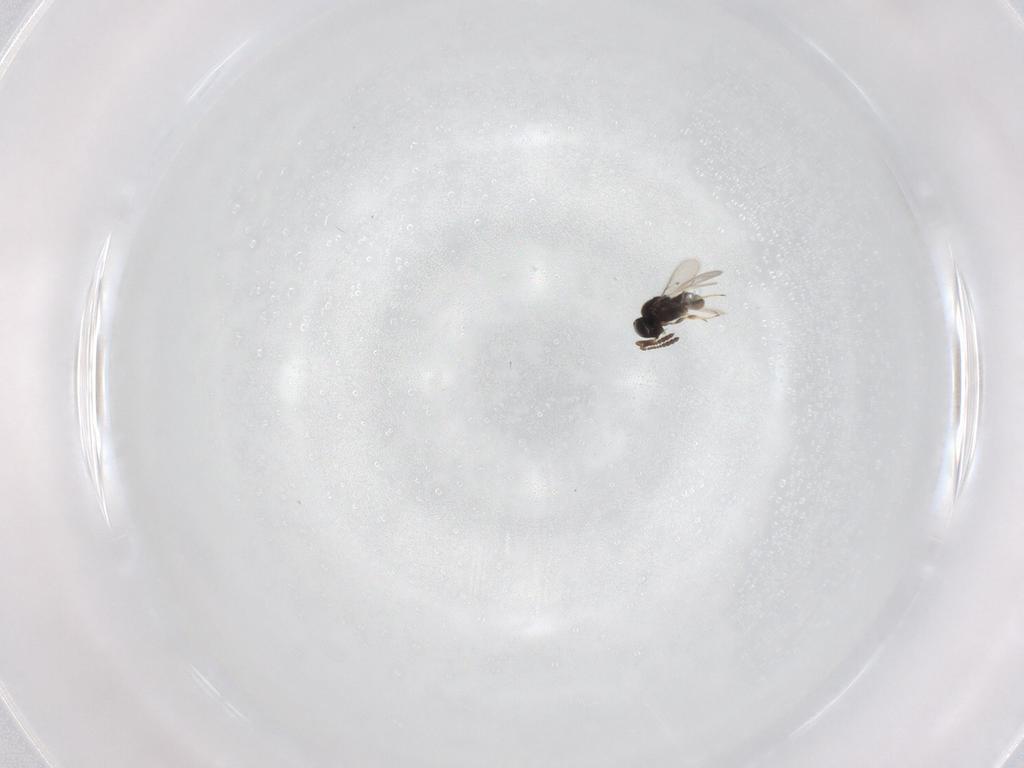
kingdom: Animalia
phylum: Arthropoda
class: Insecta
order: Hymenoptera
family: Scelionidae
